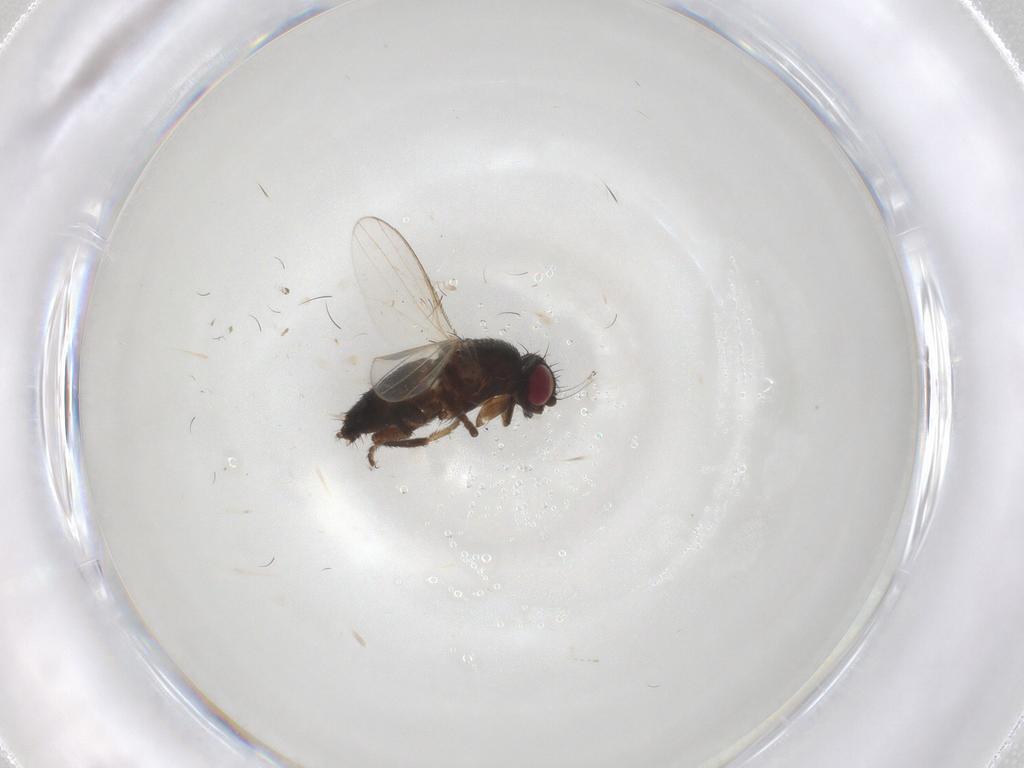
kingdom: Animalia
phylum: Arthropoda
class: Insecta
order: Diptera
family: Milichiidae
